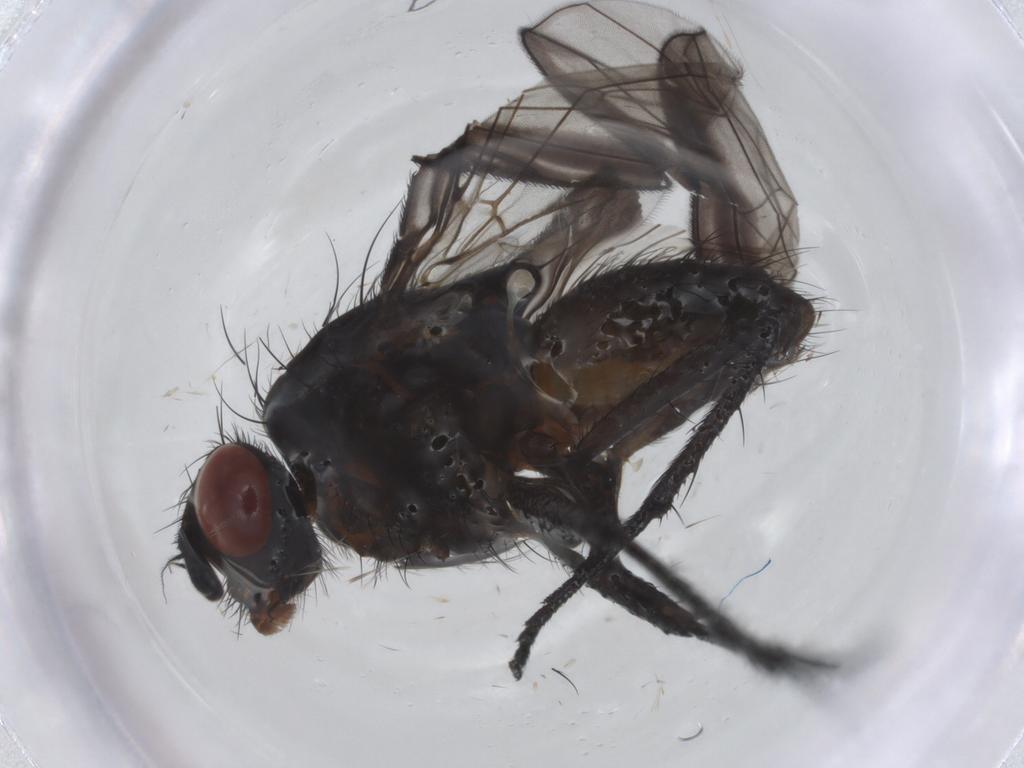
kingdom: Animalia
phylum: Arthropoda
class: Insecta
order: Diptera
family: Anthomyiidae
